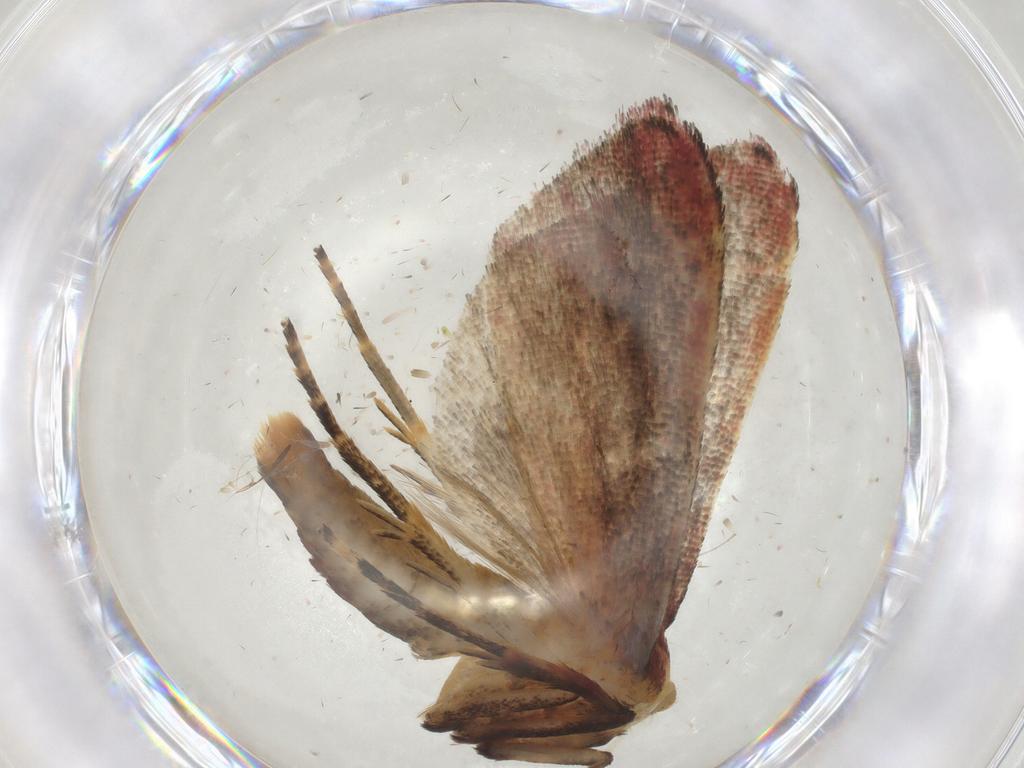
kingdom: Animalia
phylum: Arthropoda
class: Insecta
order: Lepidoptera
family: Pyralidae
